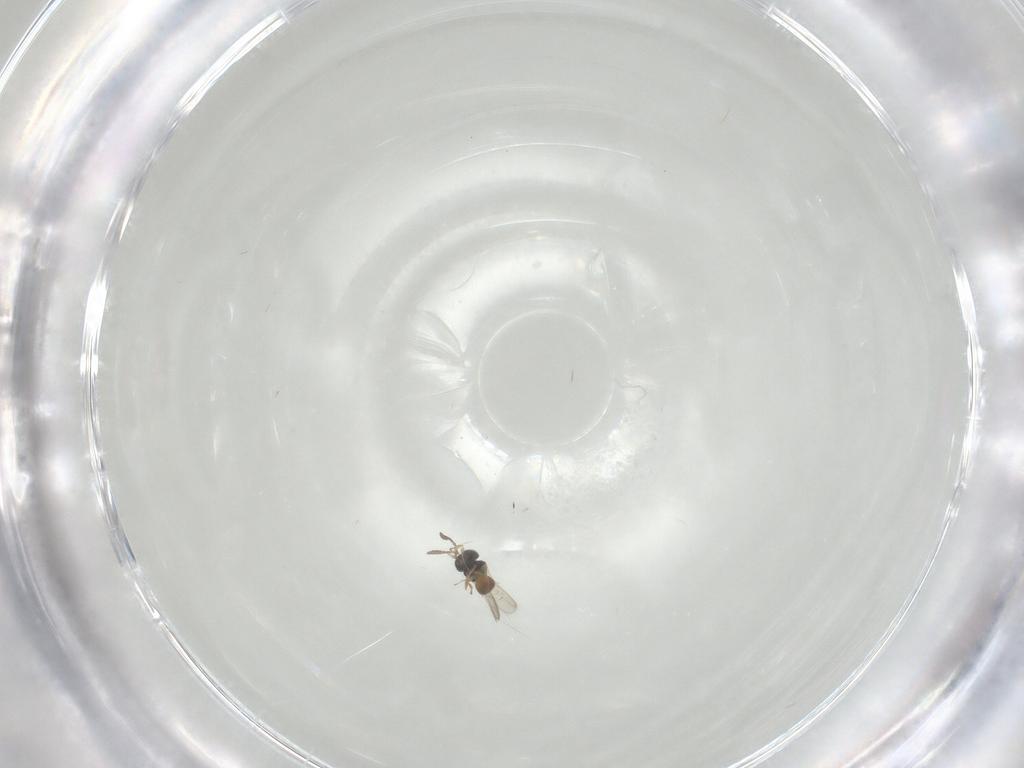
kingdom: Animalia
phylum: Arthropoda
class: Insecta
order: Hymenoptera
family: Scelionidae
